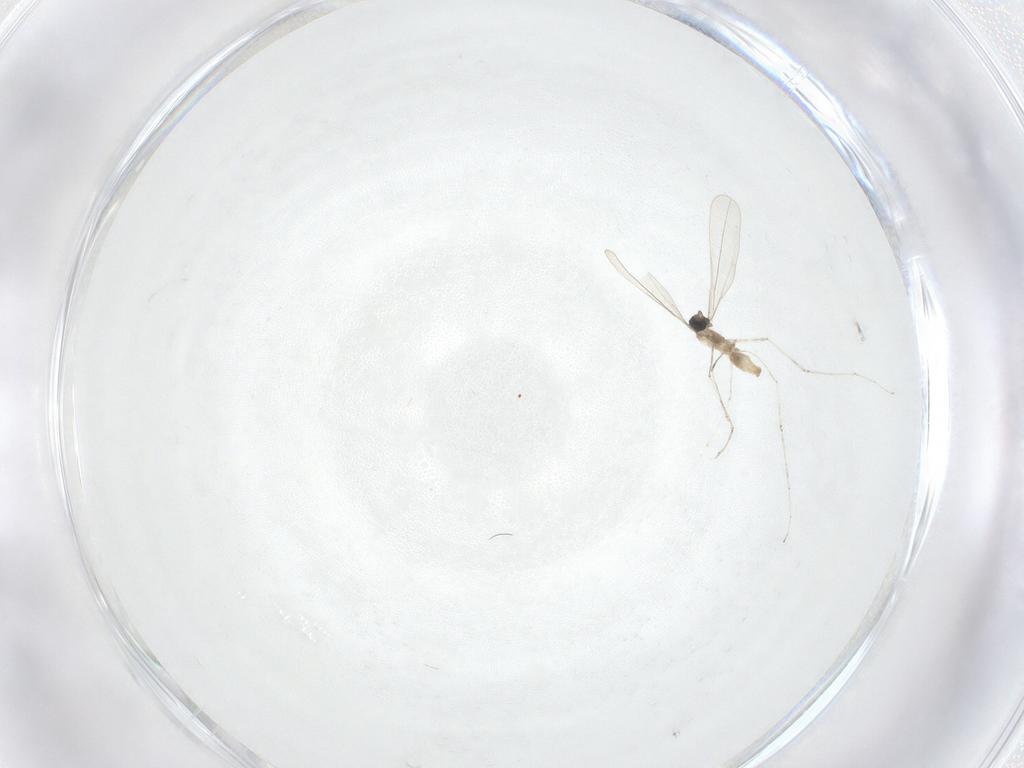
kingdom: Animalia
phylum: Arthropoda
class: Insecta
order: Diptera
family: Cecidomyiidae
